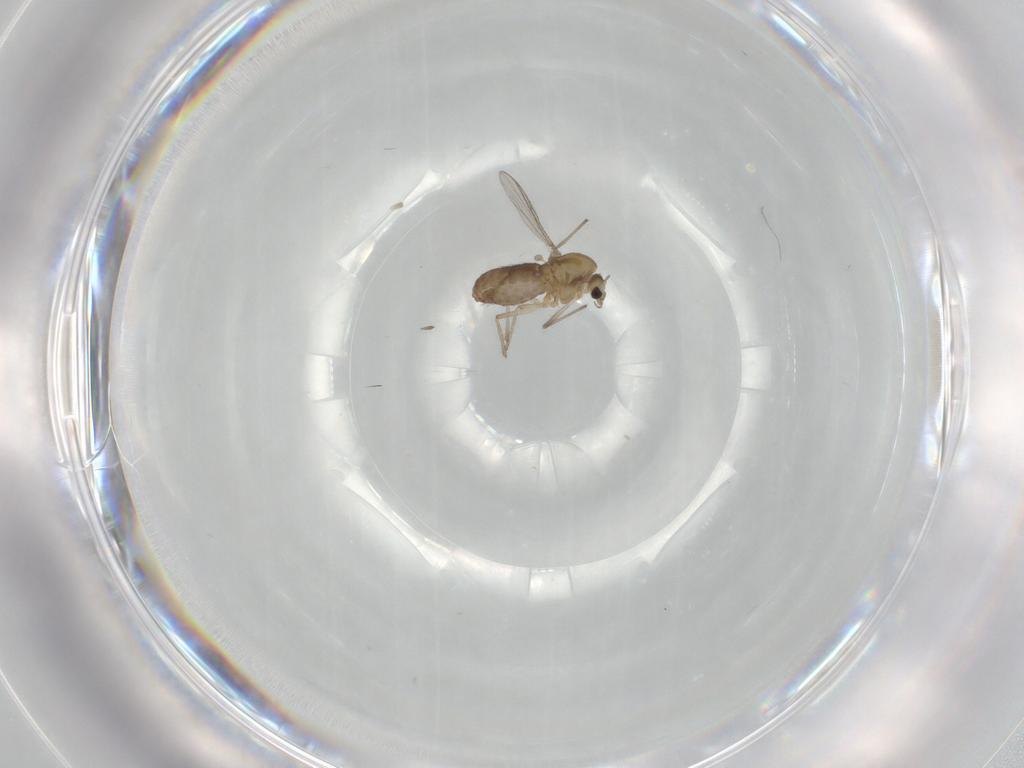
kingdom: Animalia
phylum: Arthropoda
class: Insecta
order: Diptera
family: Chironomidae
